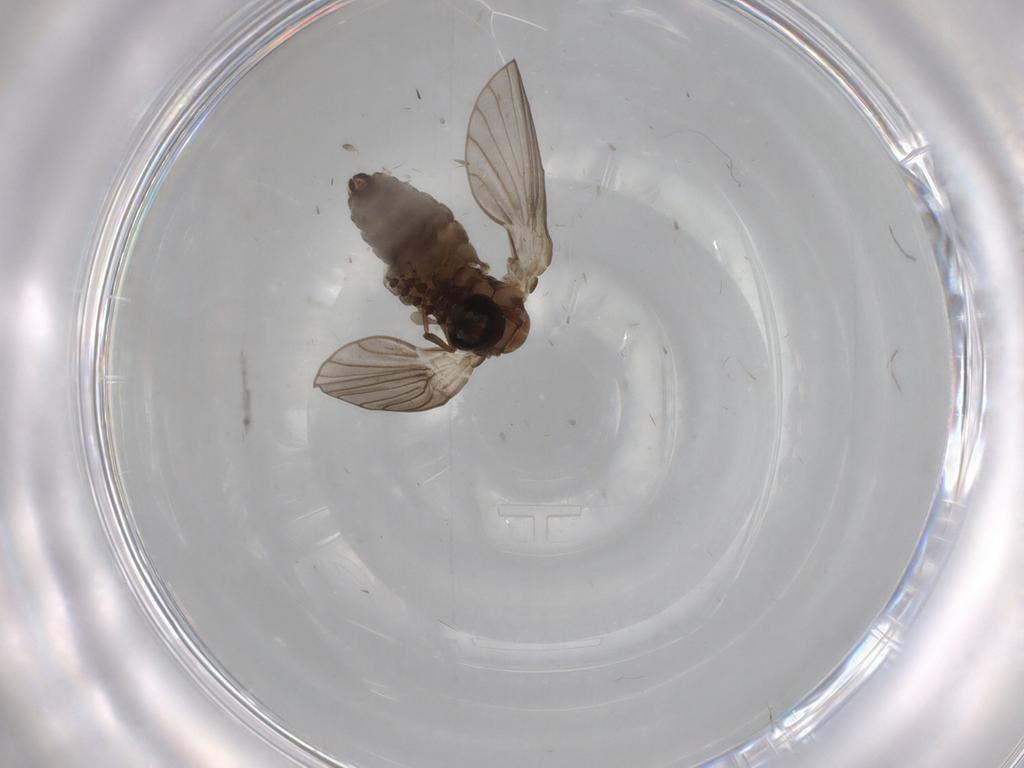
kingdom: Animalia
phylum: Arthropoda
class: Insecta
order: Diptera
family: Psychodidae
